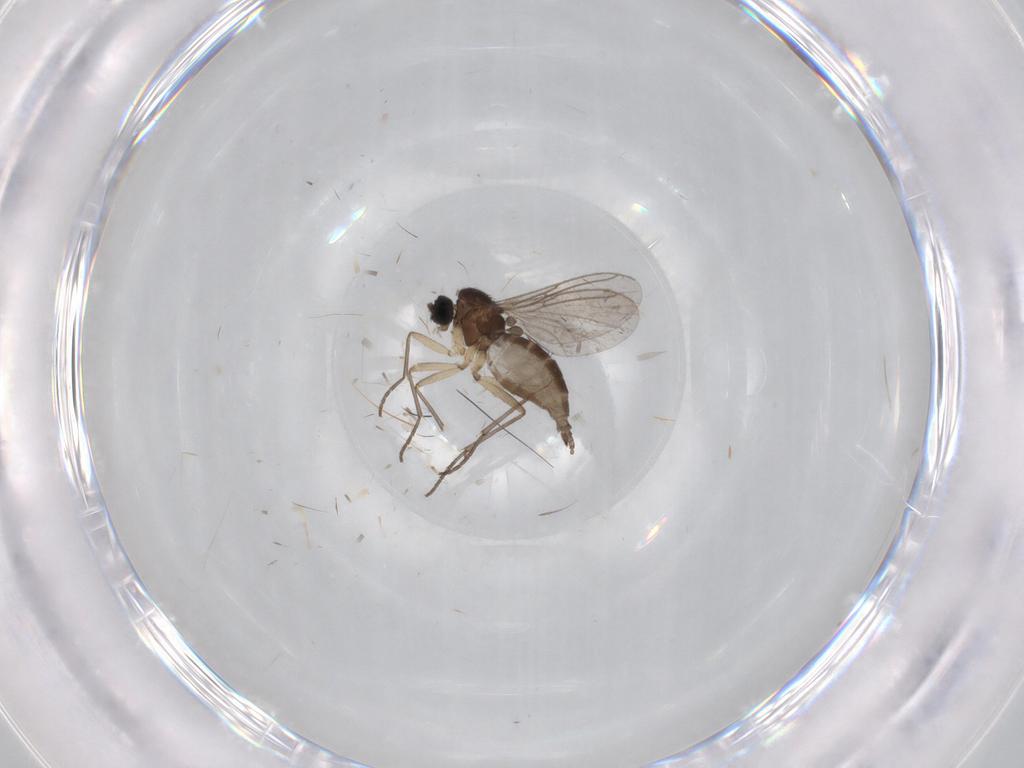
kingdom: Animalia
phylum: Arthropoda
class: Insecta
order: Diptera
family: Sciaridae
